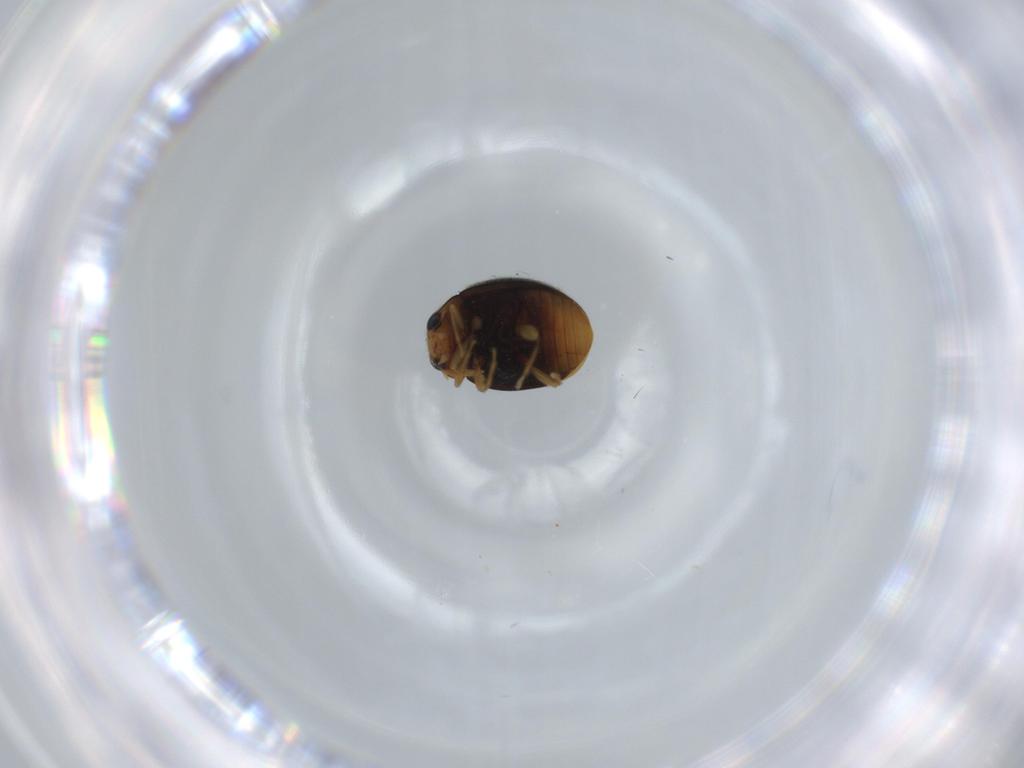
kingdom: Animalia
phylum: Arthropoda
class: Insecta
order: Coleoptera
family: Coccinellidae
